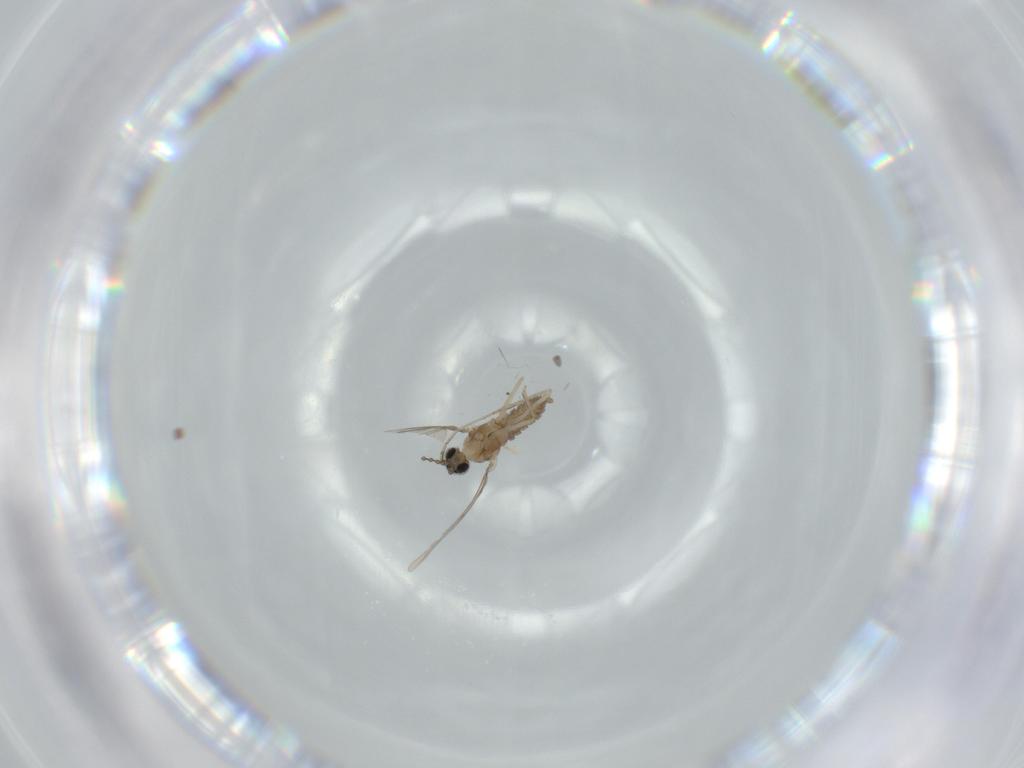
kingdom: Animalia
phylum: Arthropoda
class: Insecta
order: Diptera
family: Cecidomyiidae
